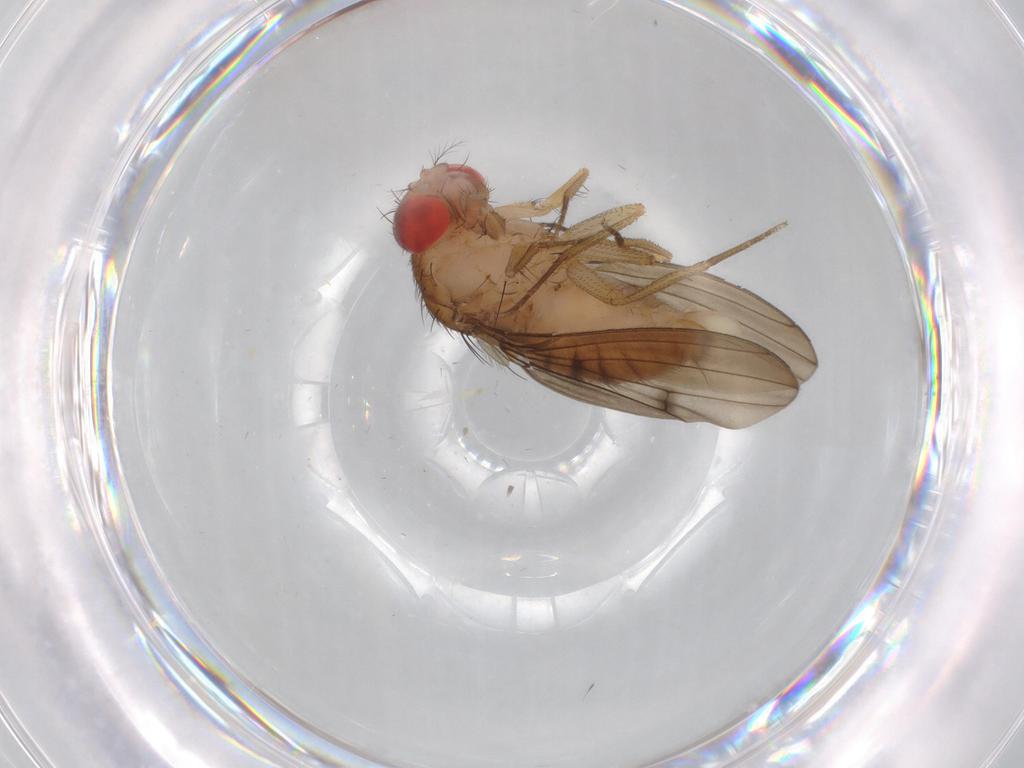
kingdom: Animalia
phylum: Arthropoda
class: Insecta
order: Diptera
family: Drosophilidae
